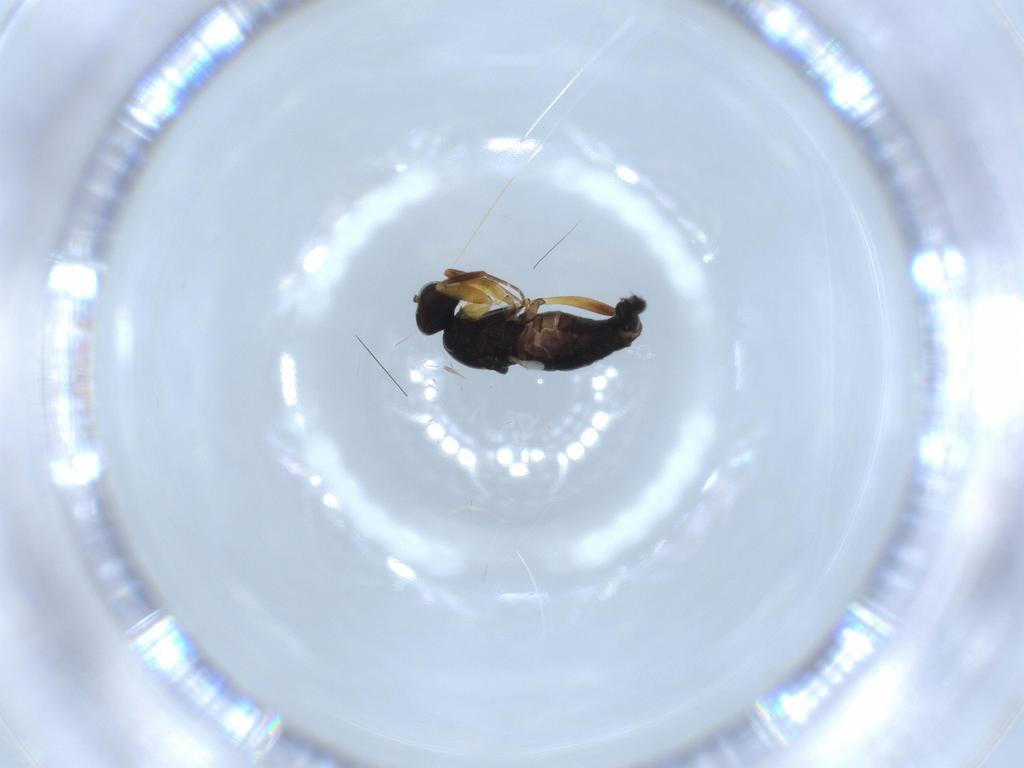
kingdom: Animalia
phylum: Arthropoda
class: Insecta
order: Diptera
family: Hybotidae
